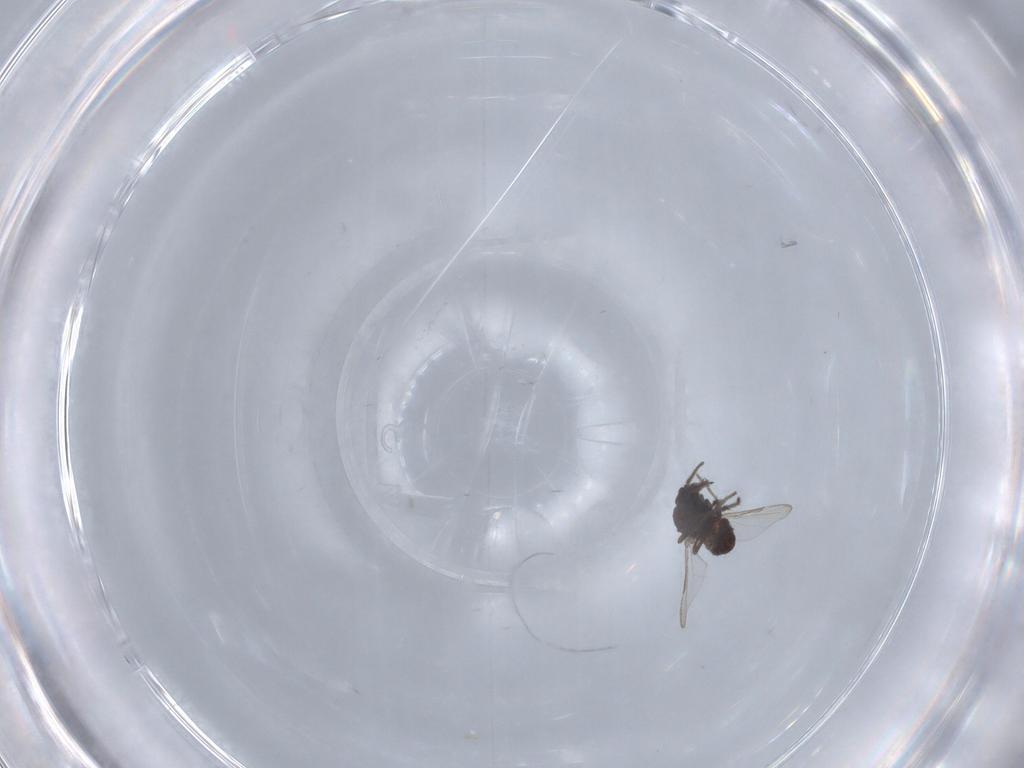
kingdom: Animalia
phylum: Arthropoda
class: Insecta
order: Diptera
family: Ceratopogonidae
